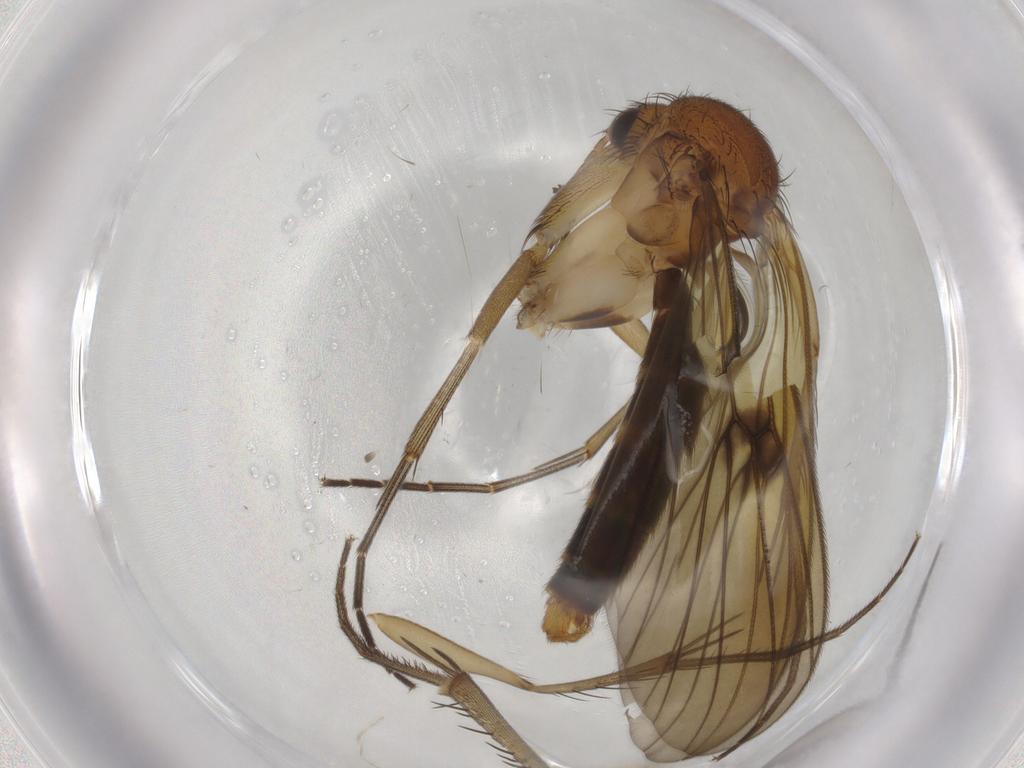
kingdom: Animalia
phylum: Arthropoda
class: Insecta
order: Diptera
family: Mycetophilidae
